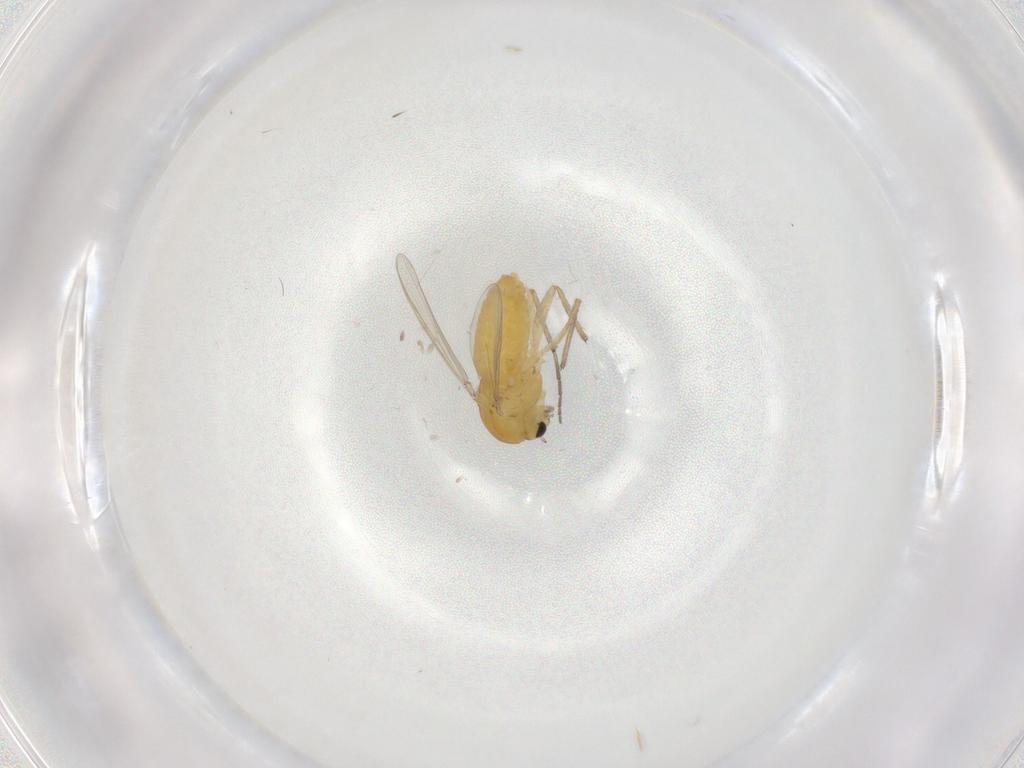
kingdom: Animalia
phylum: Arthropoda
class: Insecta
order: Diptera
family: Chironomidae
